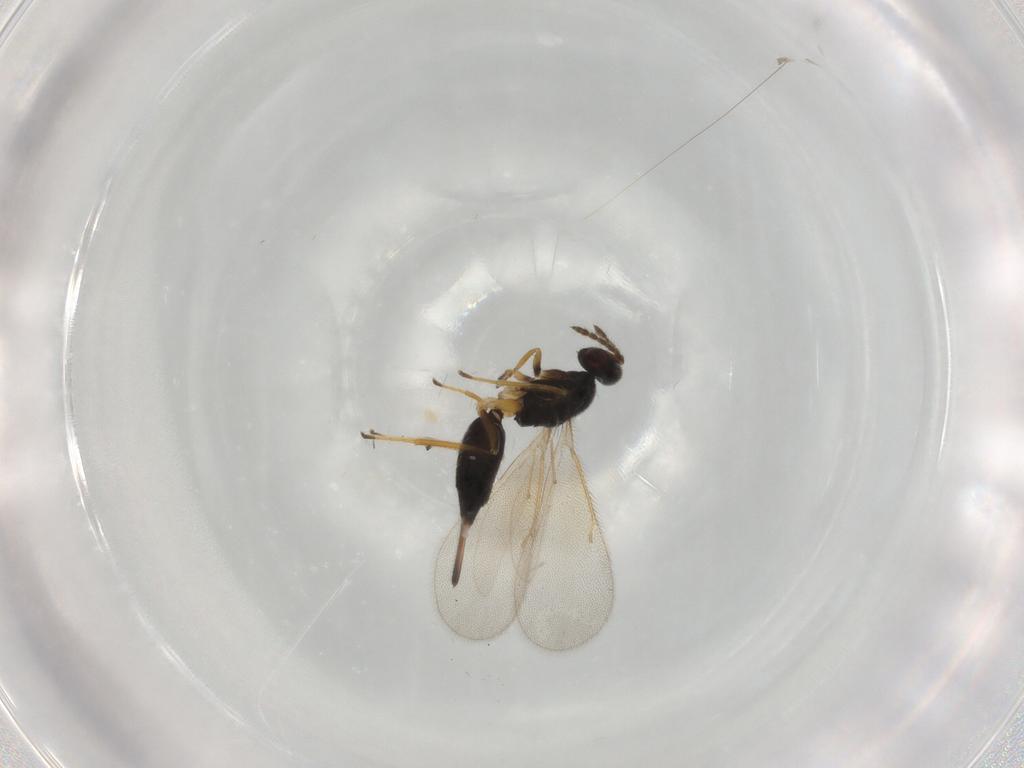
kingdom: Animalia
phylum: Arthropoda
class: Insecta
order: Hymenoptera
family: Eulophidae
